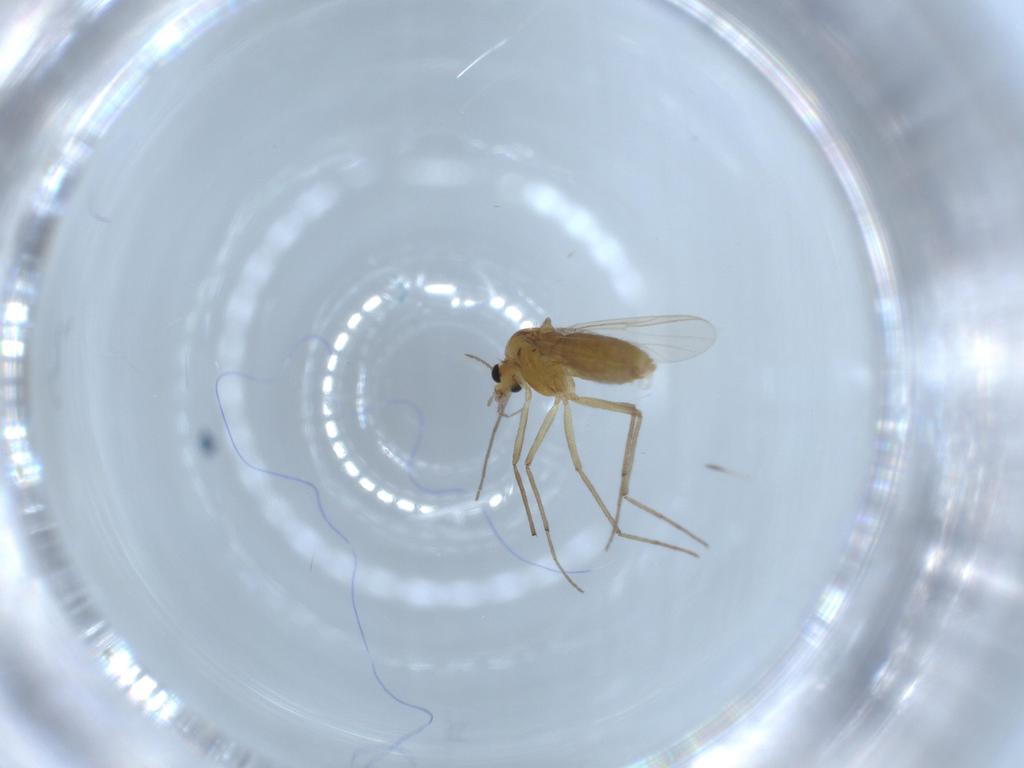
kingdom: Animalia
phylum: Arthropoda
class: Insecta
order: Diptera
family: Chironomidae
